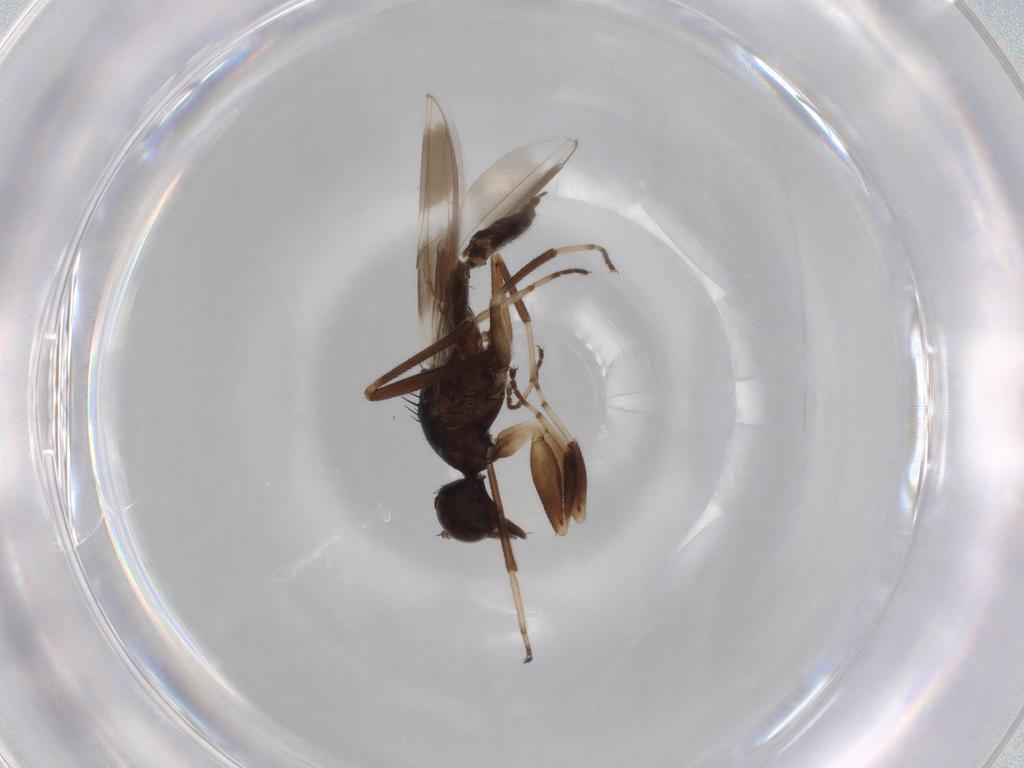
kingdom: Animalia
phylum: Arthropoda
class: Insecta
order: Diptera
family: Hybotidae
